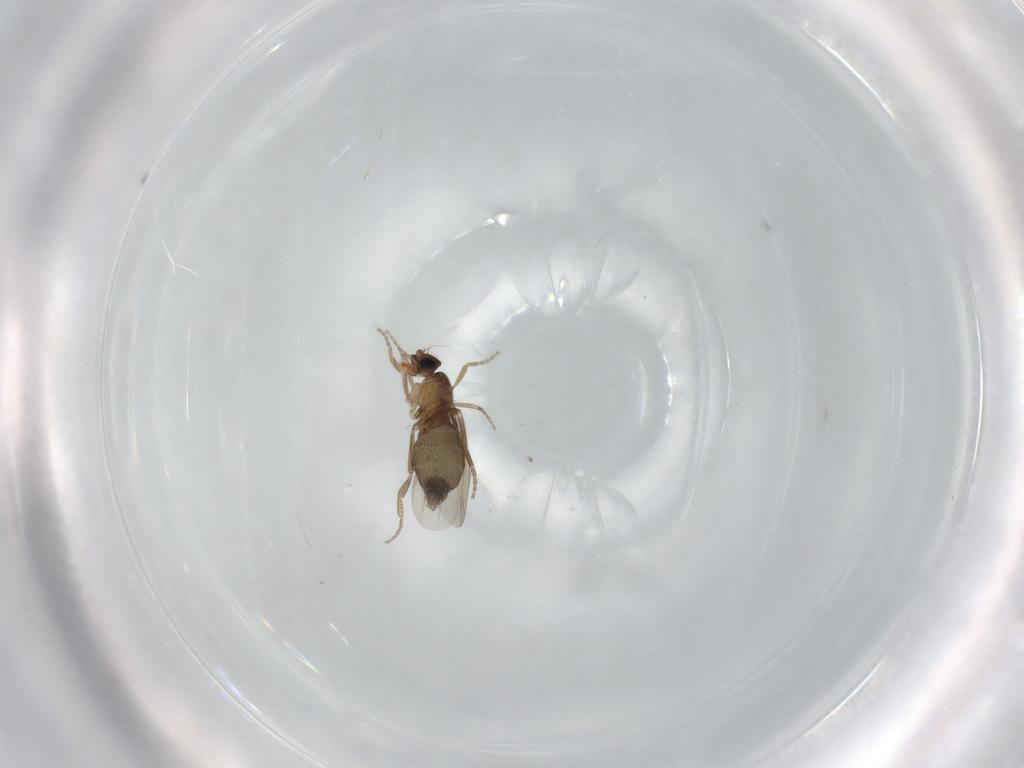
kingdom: Animalia
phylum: Arthropoda
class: Insecta
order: Diptera
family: Phoridae
